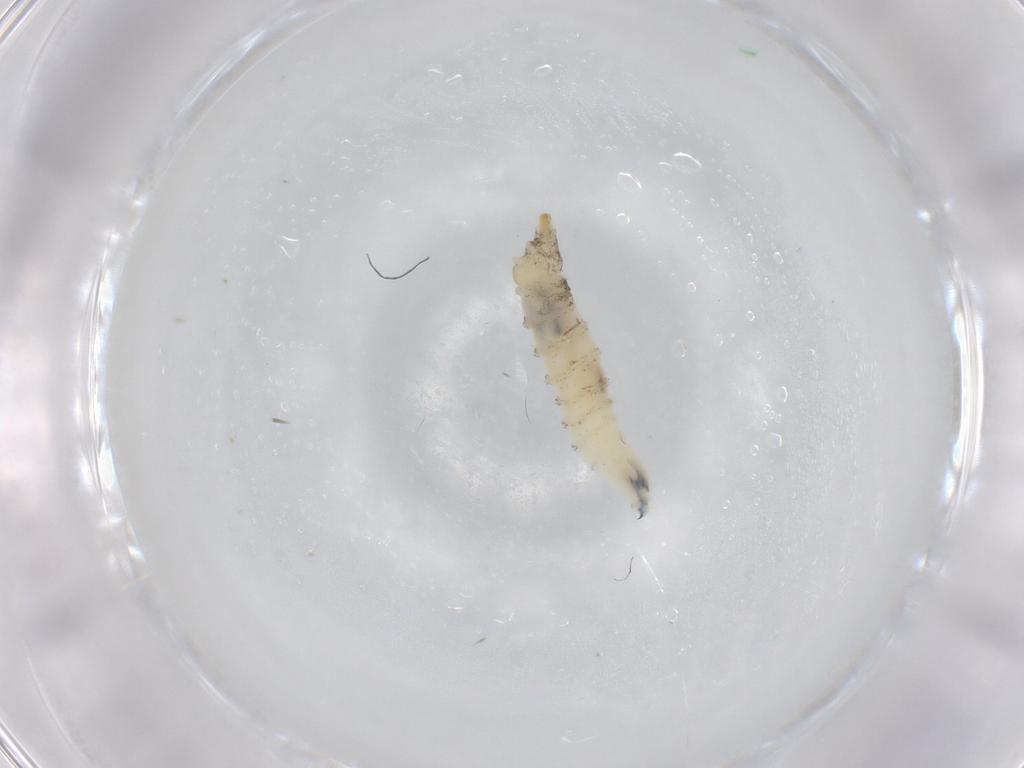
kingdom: Animalia
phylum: Arthropoda
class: Insecta
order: Diptera
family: Drosophilidae
